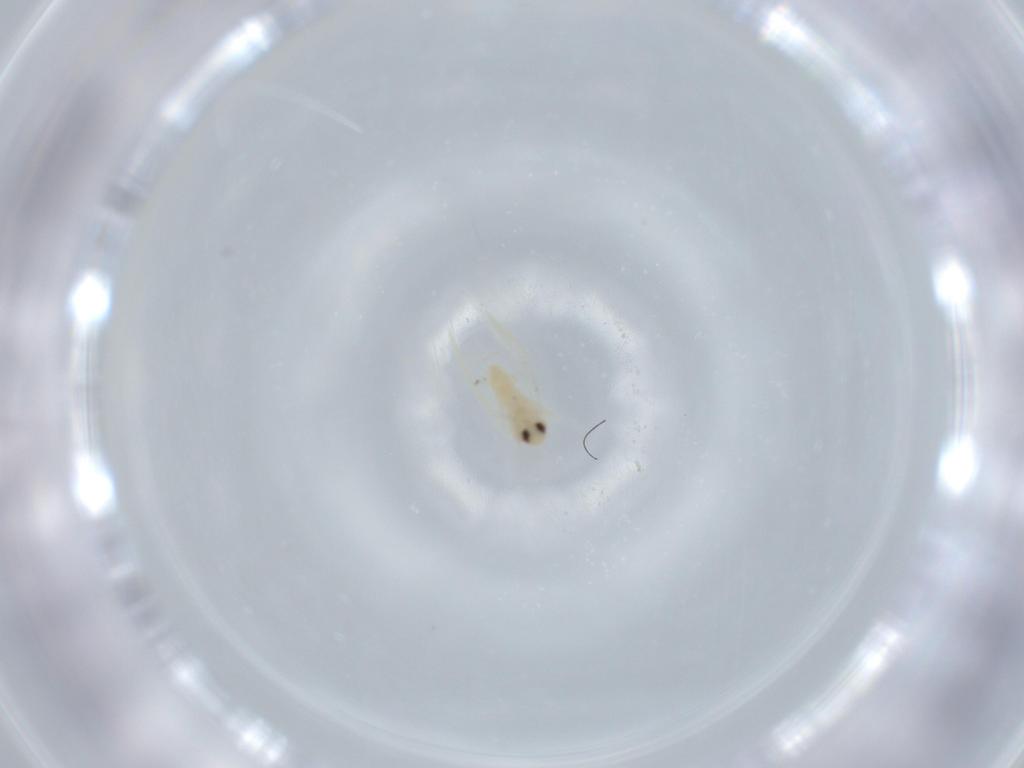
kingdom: Animalia
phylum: Arthropoda
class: Insecta
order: Hemiptera
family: Aleyrodidae
